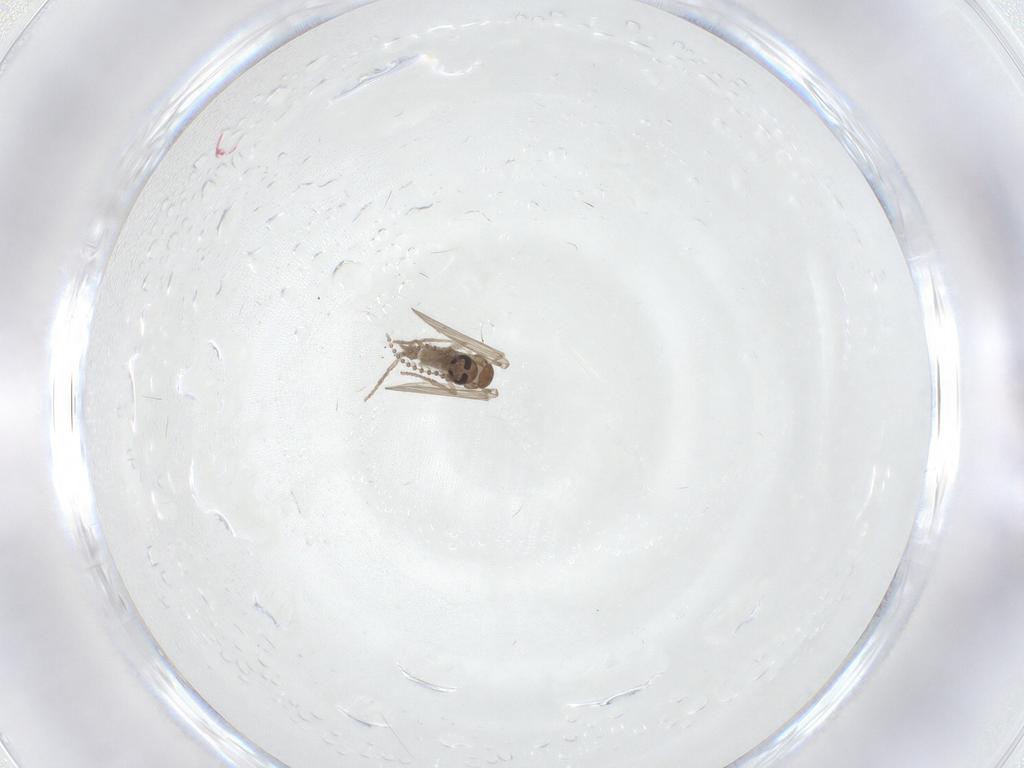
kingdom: Animalia
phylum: Arthropoda
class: Insecta
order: Diptera
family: Psychodidae
